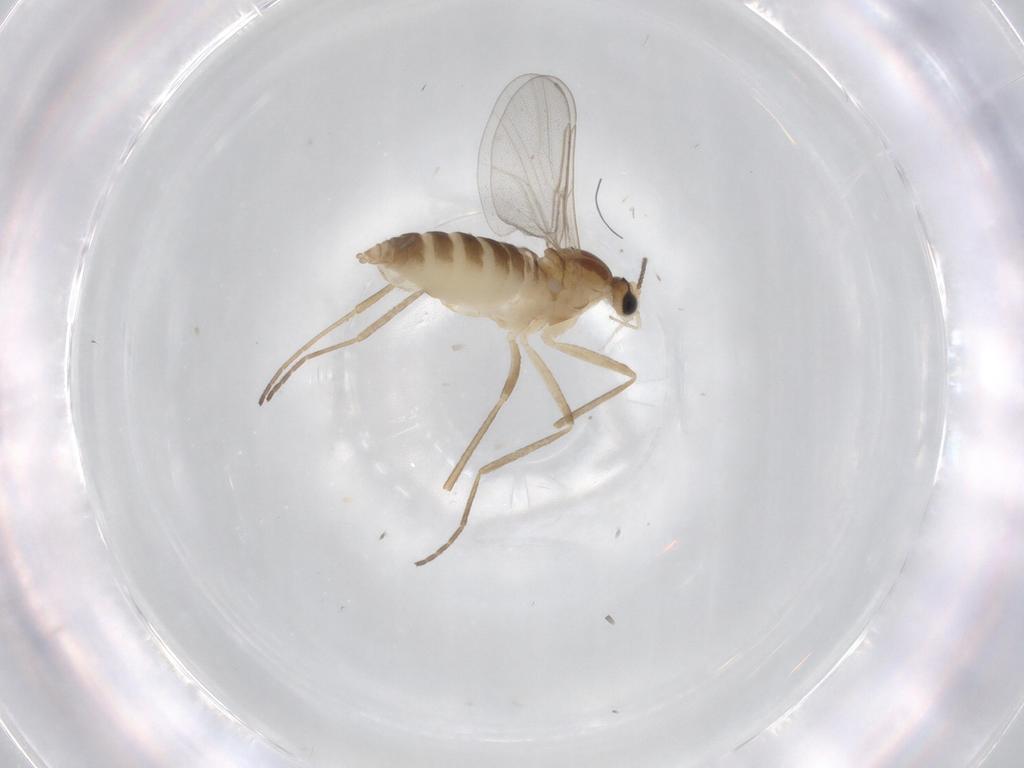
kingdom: Animalia
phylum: Arthropoda
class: Insecta
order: Diptera
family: Cecidomyiidae
